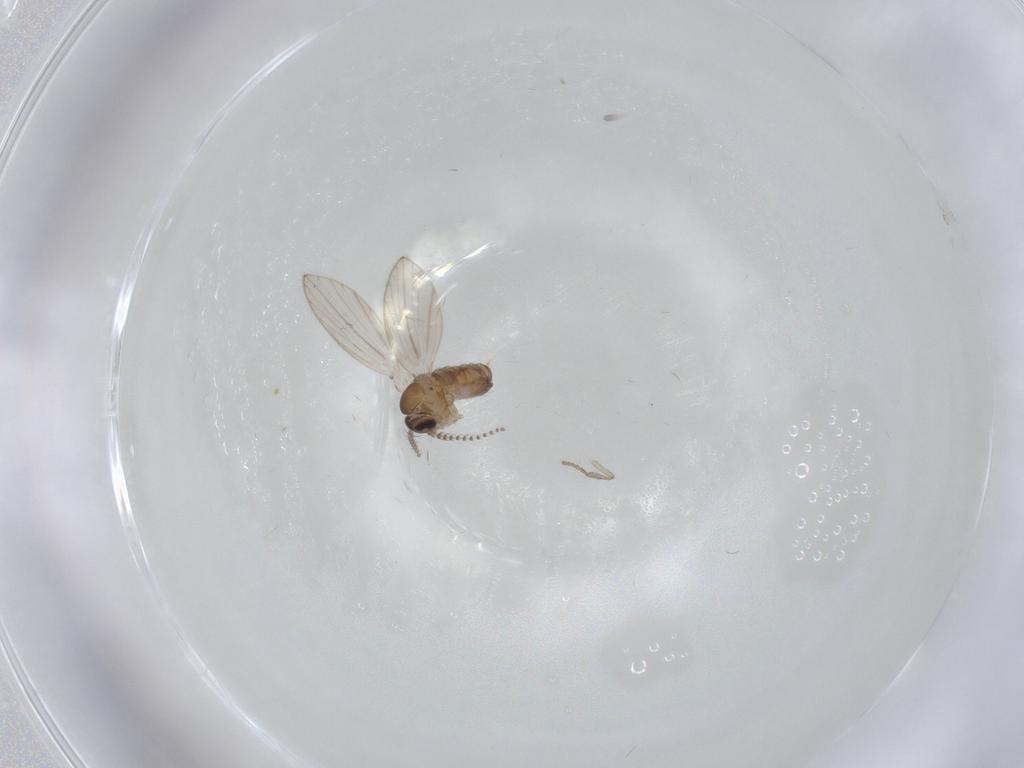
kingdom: Animalia
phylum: Arthropoda
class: Insecta
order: Diptera
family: Psychodidae
